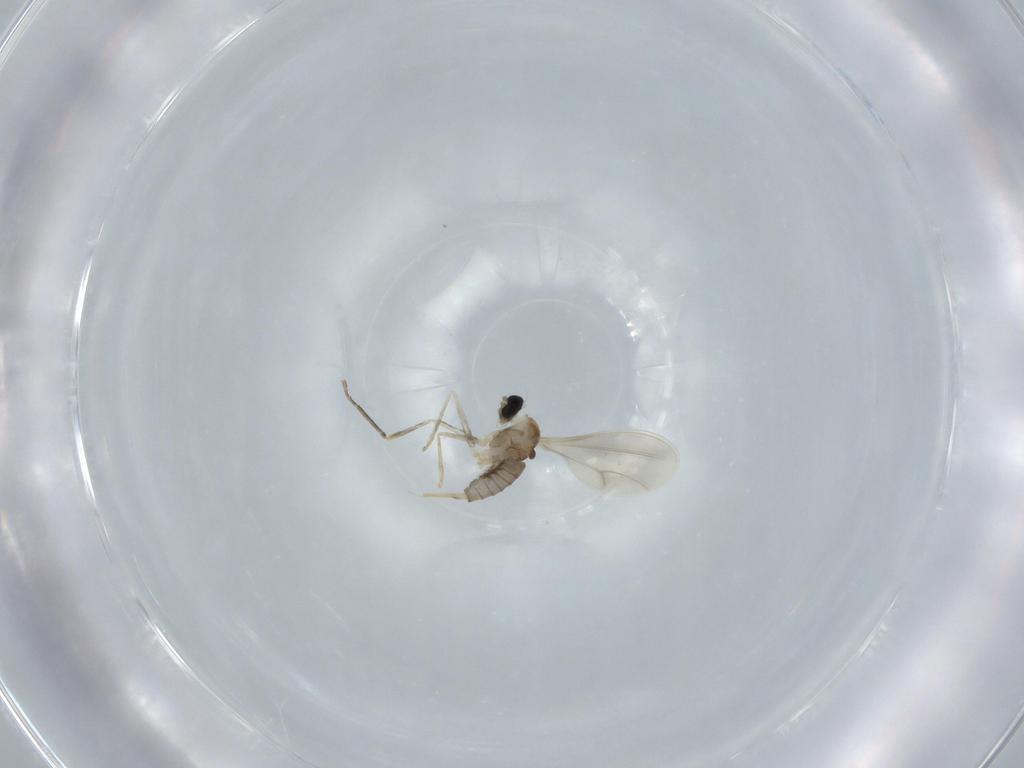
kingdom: Animalia
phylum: Arthropoda
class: Insecta
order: Diptera
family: Cecidomyiidae
